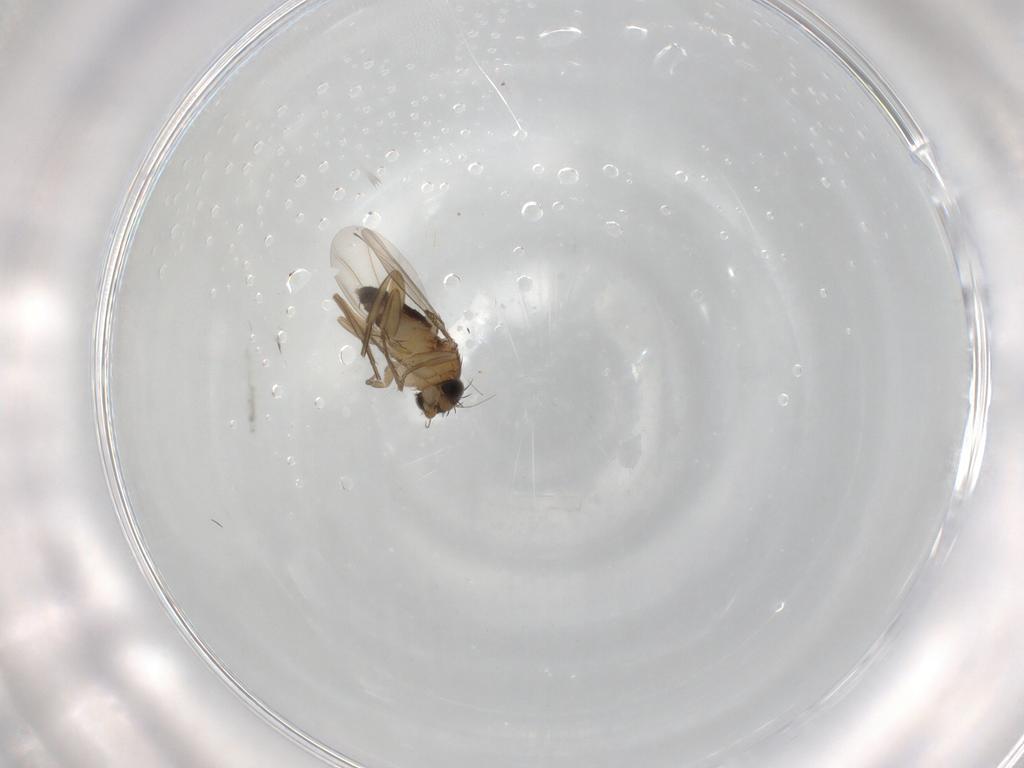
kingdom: Animalia
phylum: Arthropoda
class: Insecta
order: Diptera
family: Phoridae
